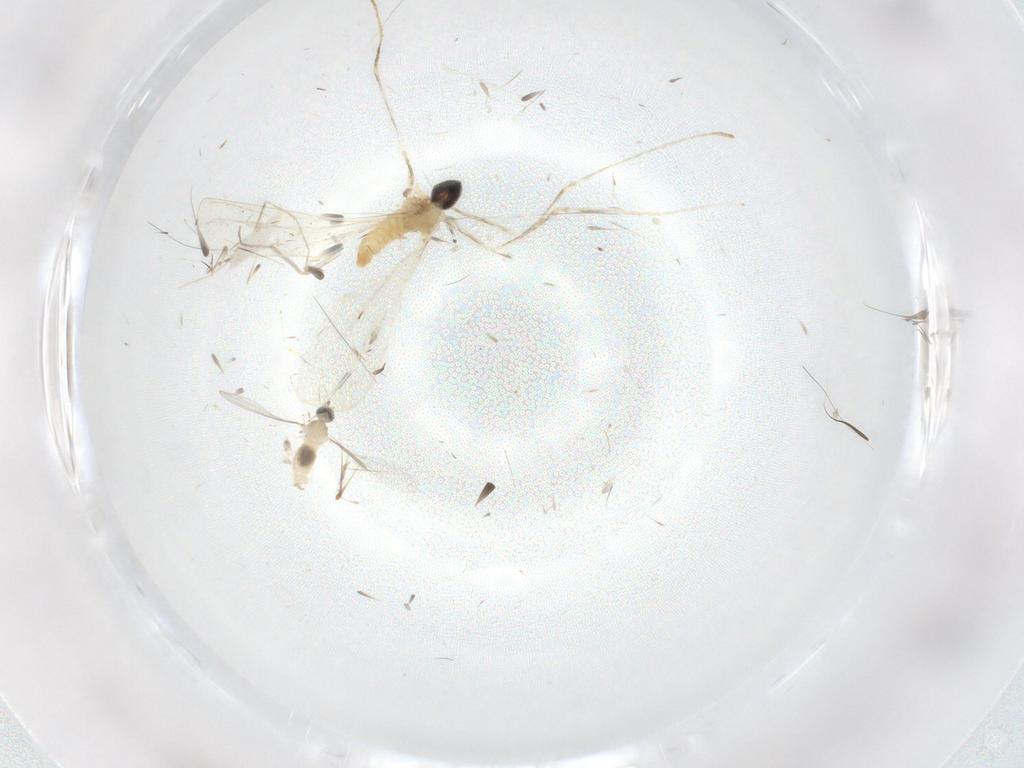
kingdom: Animalia
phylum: Arthropoda
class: Insecta
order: Diptera
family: Cecidomyiidae
